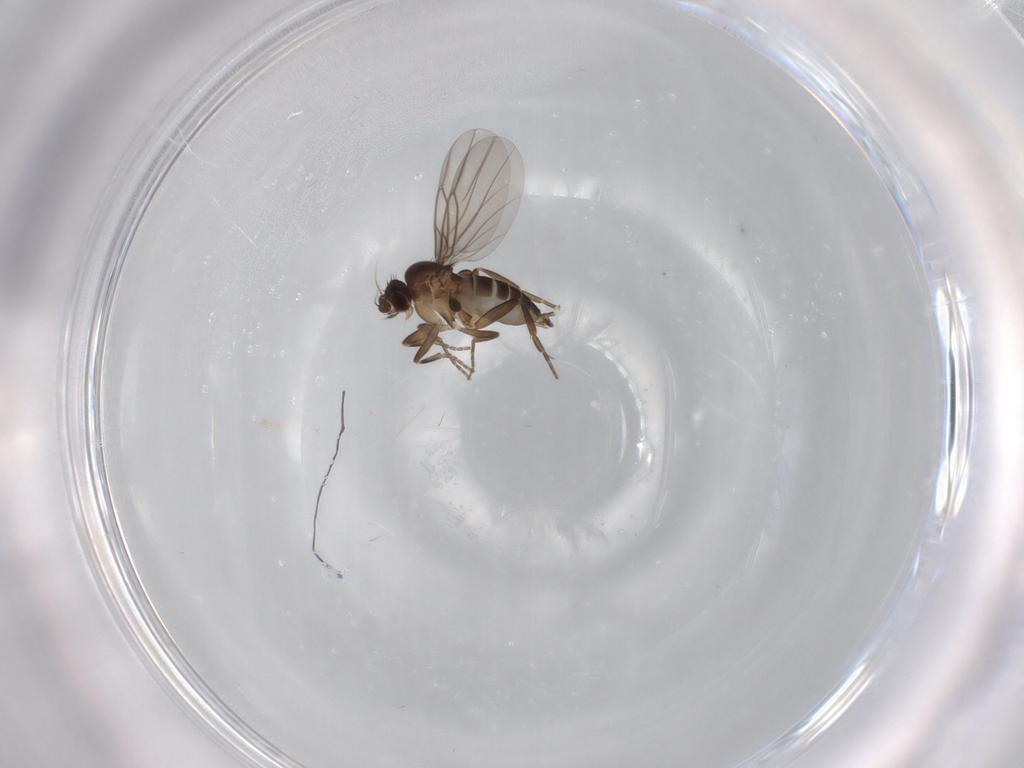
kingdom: Animalia
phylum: Arthropoda
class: Insecta
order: Diptera
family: Phoridae
